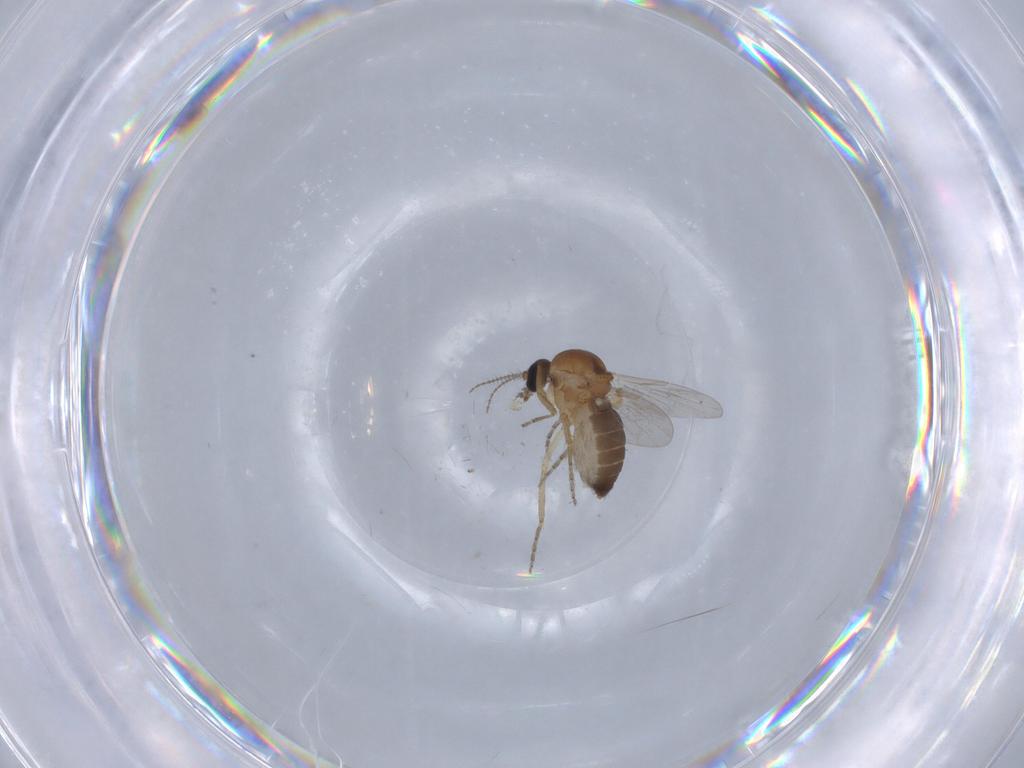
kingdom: Animalia
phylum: Arthropoda
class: Insecta
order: Diptera
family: Ceratopogonidae
